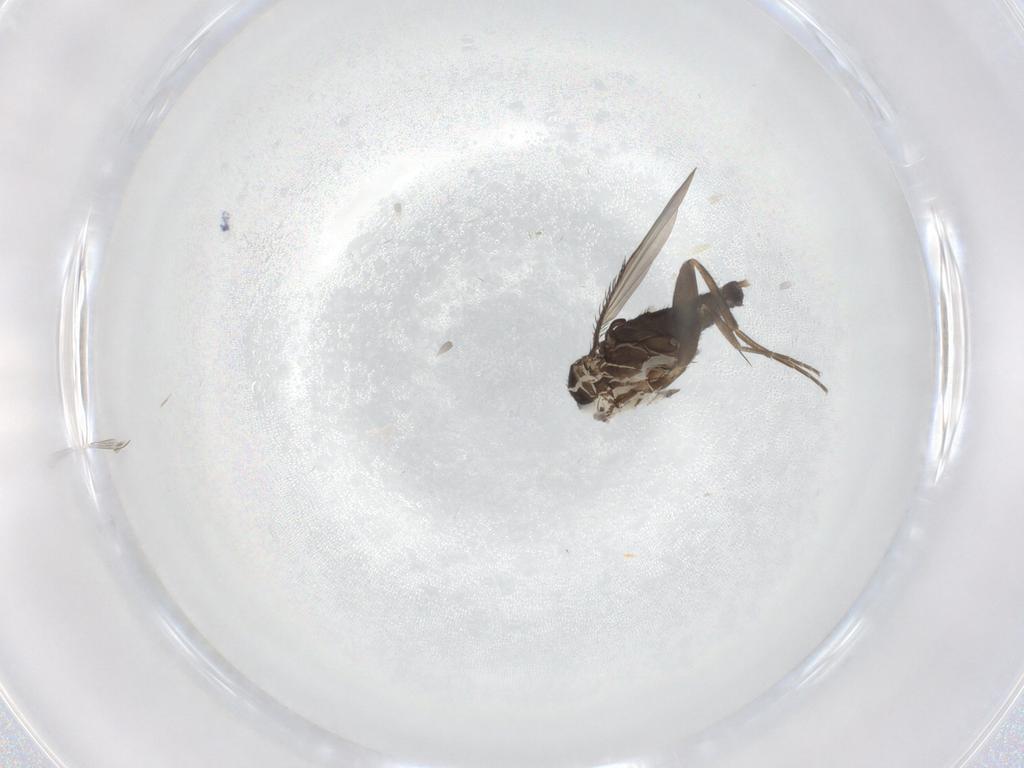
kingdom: Animalia
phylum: Arthropoda
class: Insecta
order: Diptera
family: Phoridae
